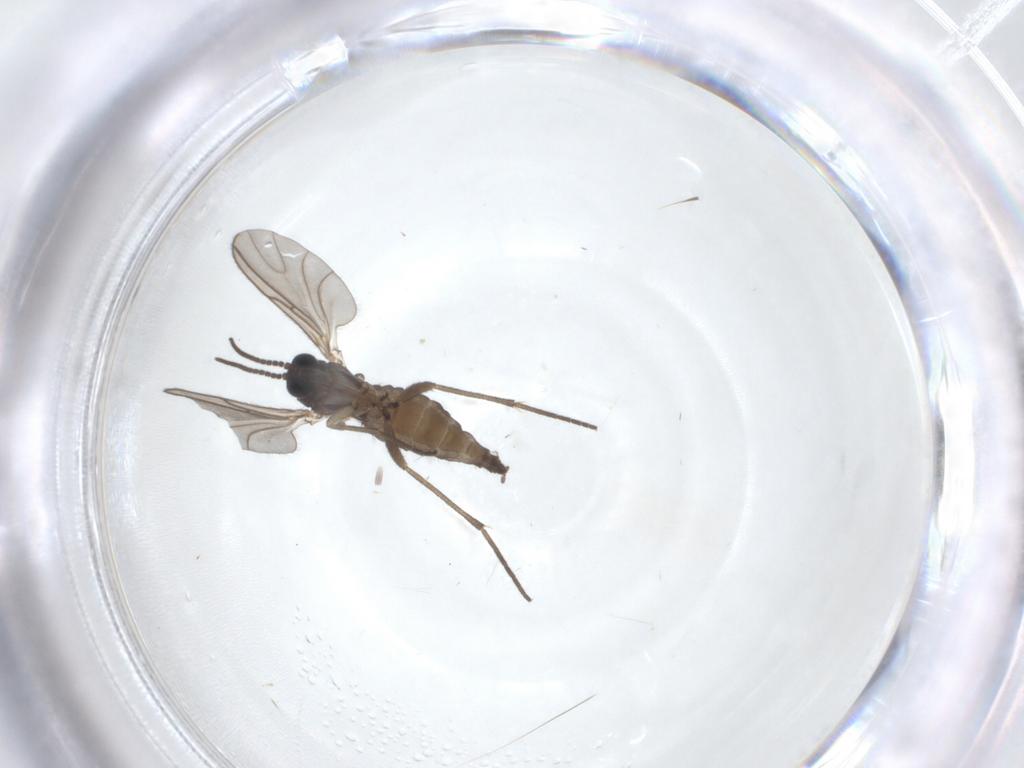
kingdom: Animalia
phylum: Arthropoda
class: Insecta
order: Diptera
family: Sciaridae
